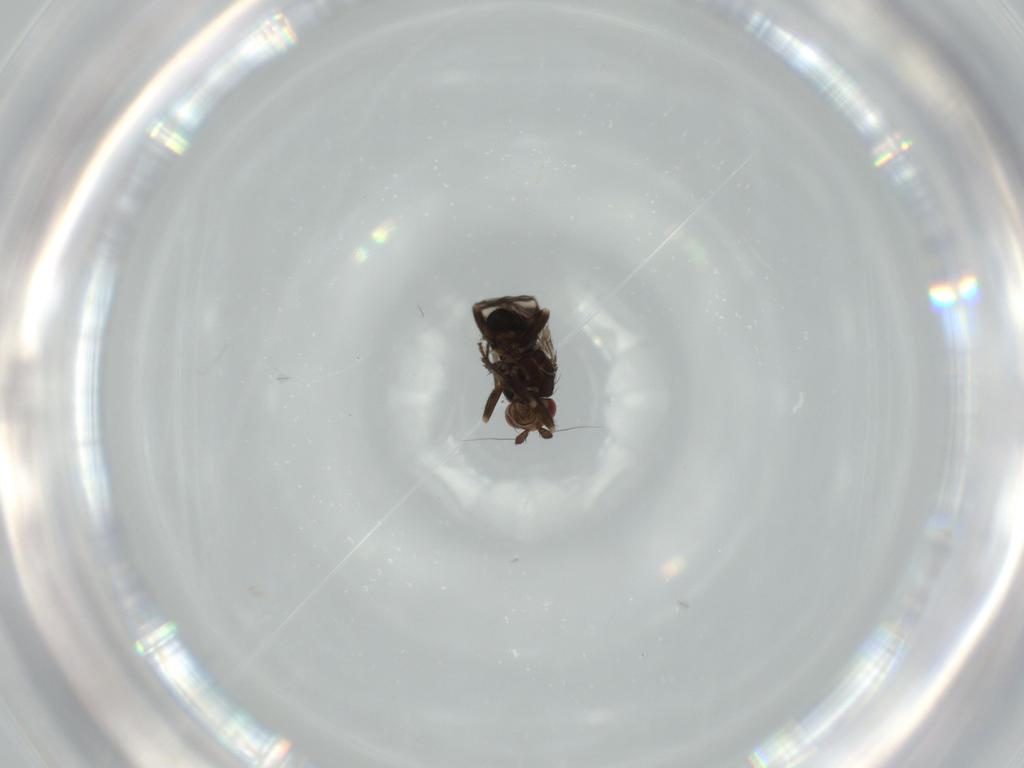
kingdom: Animalia
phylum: Arthropoda
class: Insecta
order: Diptera
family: Sphaeroceridae
